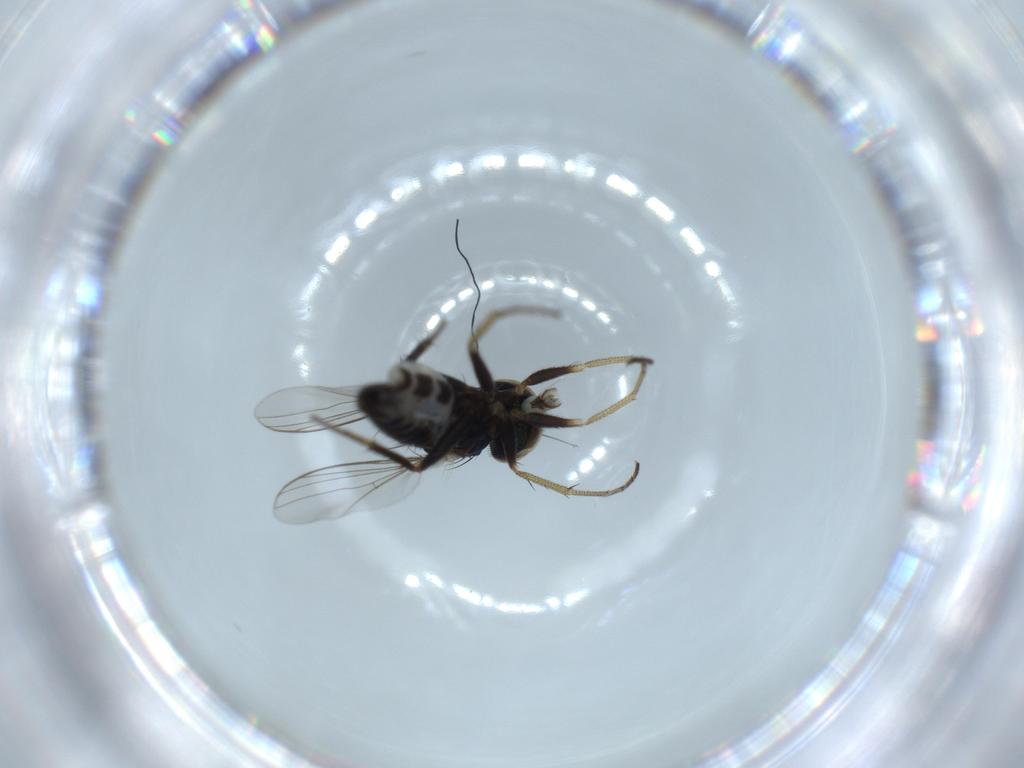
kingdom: Animalia
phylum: Arthropoda
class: Insecta
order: Diptera
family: Dolichopodidae
